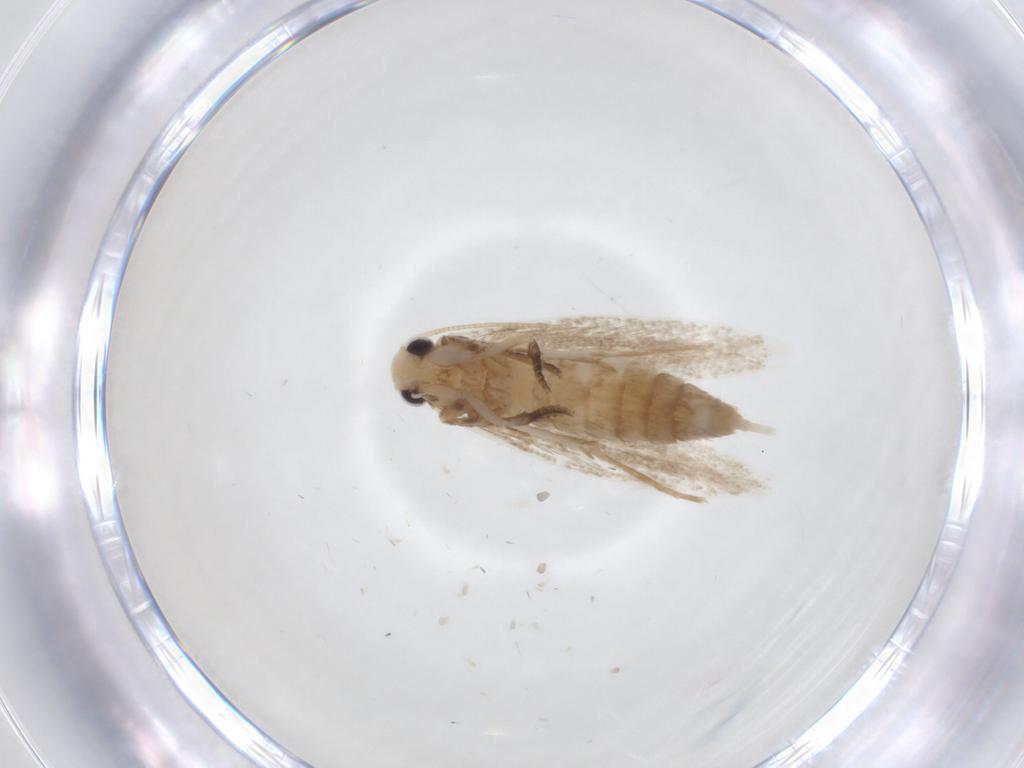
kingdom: Animalia
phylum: Arthropoda
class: Insecta
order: Lepidoptera
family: Tineidae
